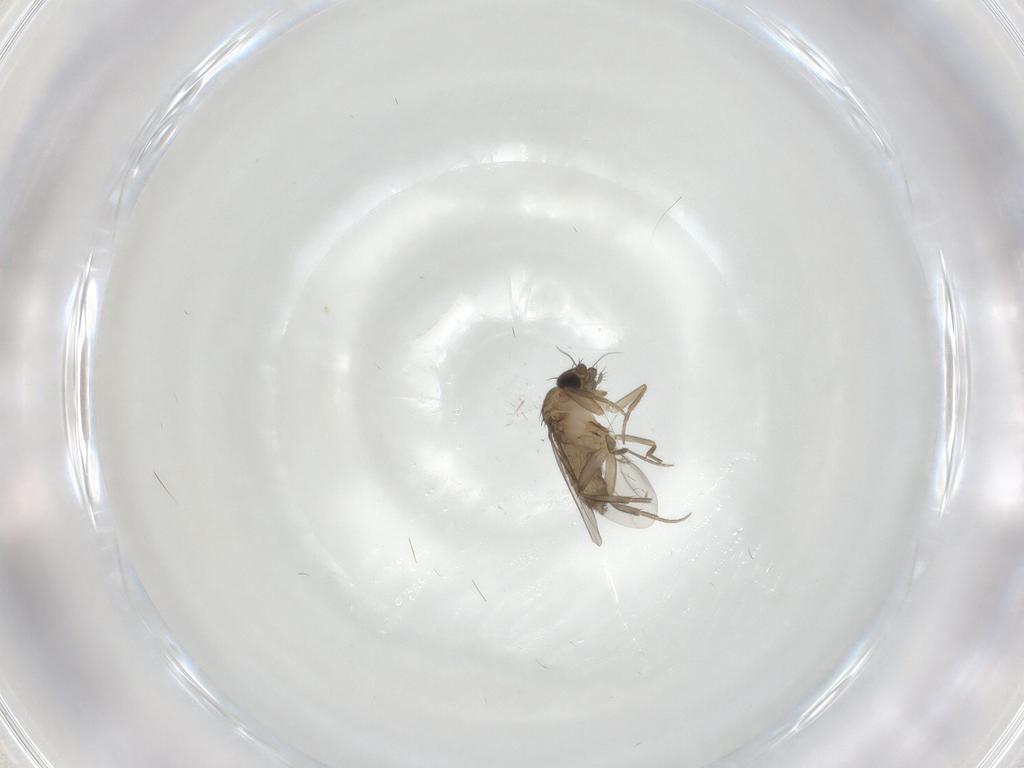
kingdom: Animalia
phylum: Arthropoda
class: Insecta
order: Diptera
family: Phoridae
